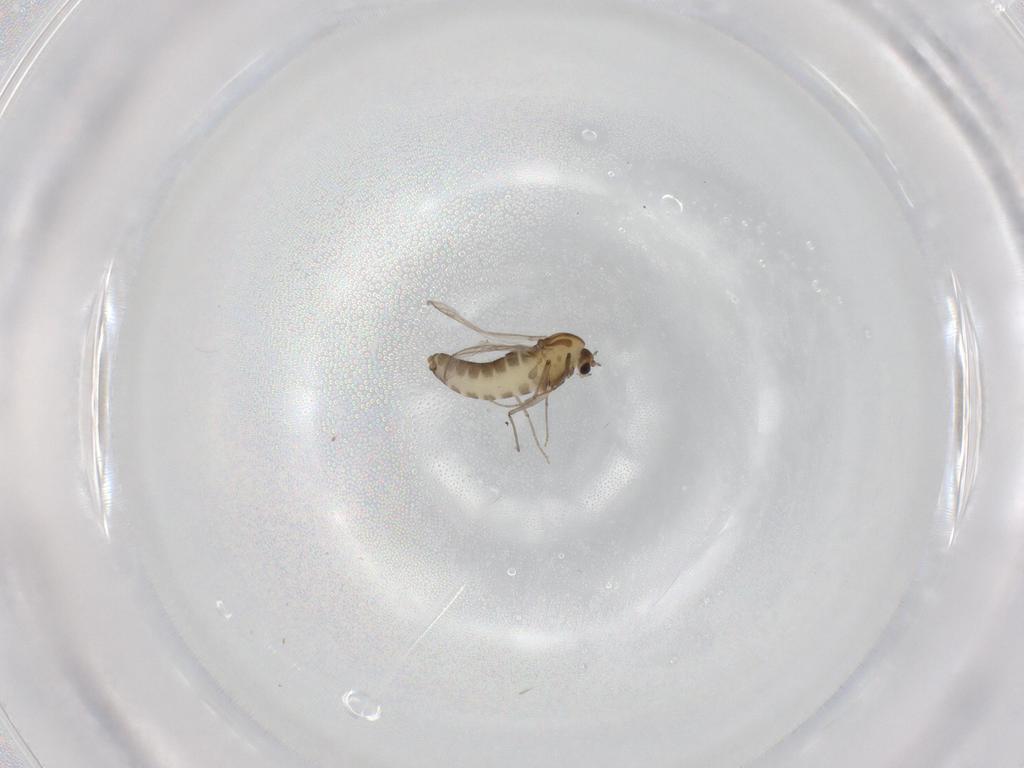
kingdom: Animalia
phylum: Arthropoda
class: Insecta
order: Diptera
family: Chironomidae
